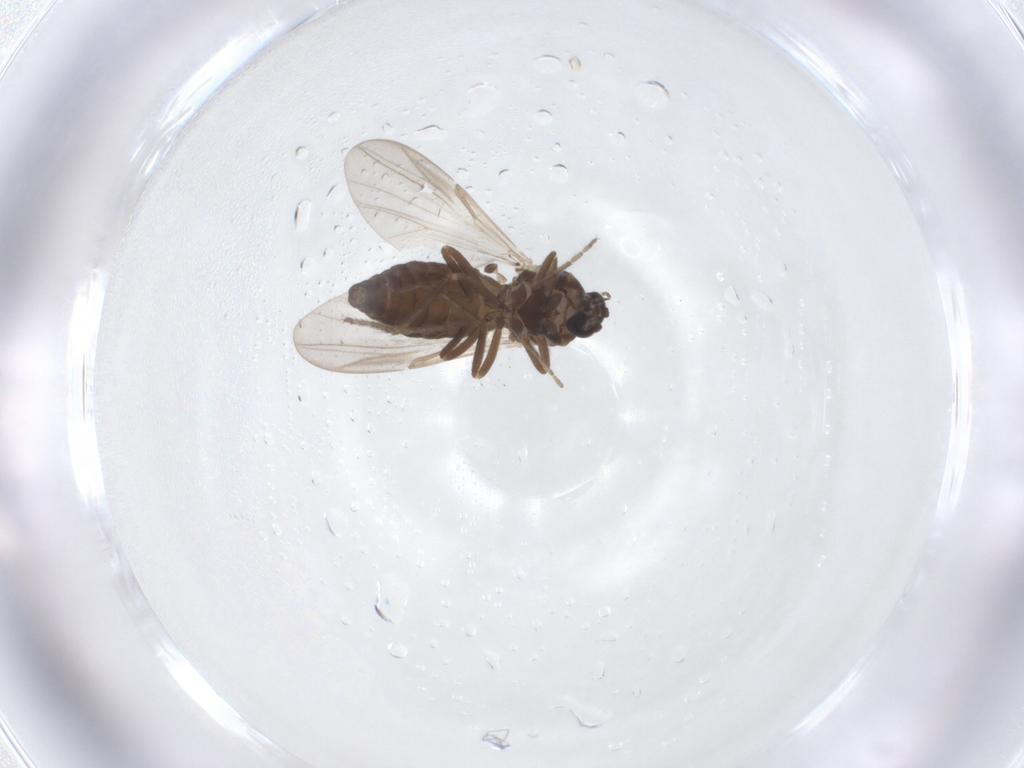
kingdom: Animalia
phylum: Arthropoda
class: Insecta
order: Diptera
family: Ceratopogonidae
